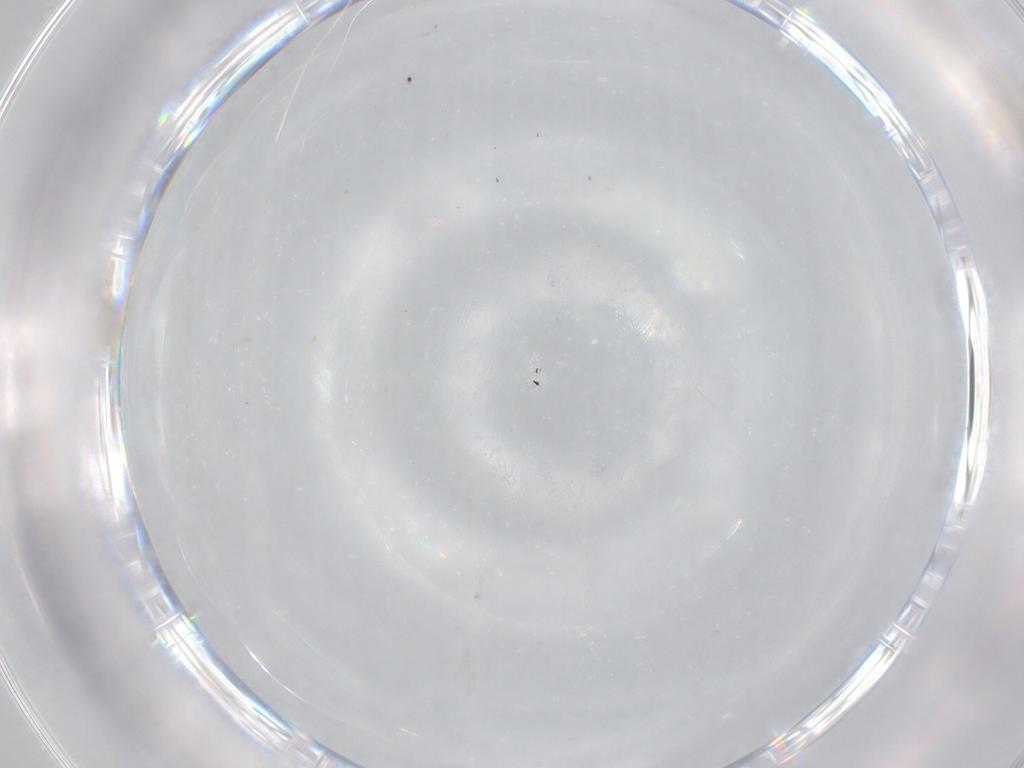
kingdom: Animalia
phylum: Arthropoda
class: Insecta
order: Diptera
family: Cecidomyiidae
